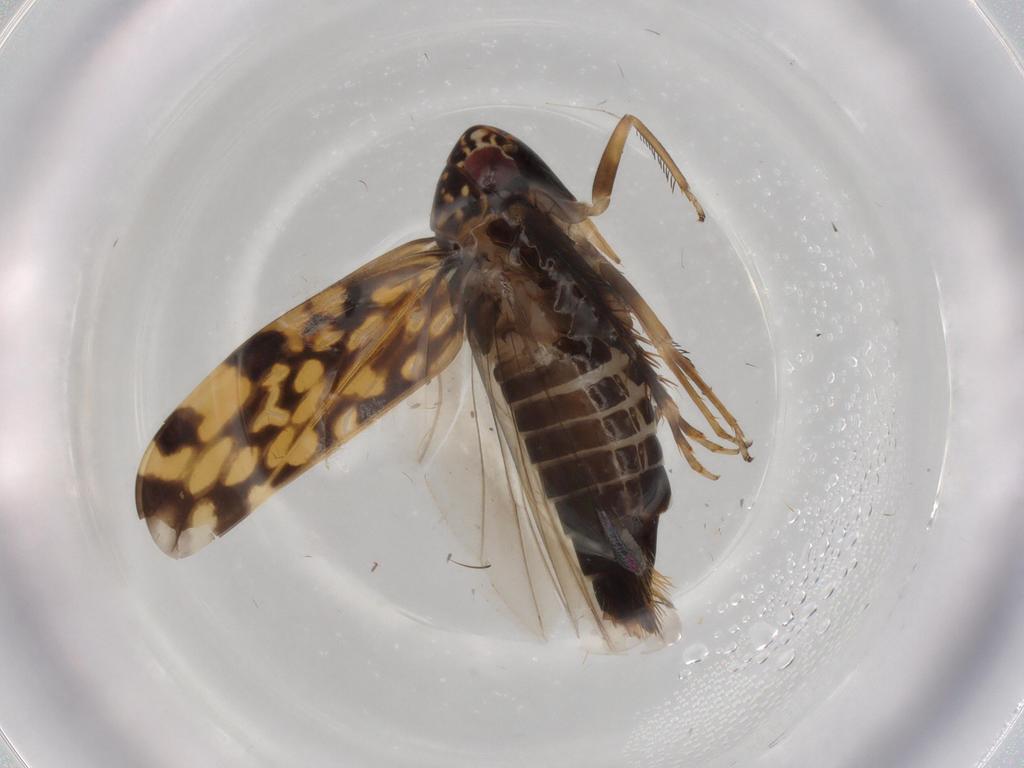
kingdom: Animalia
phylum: Arthropoda
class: Insecta
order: Hemiptera
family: Cicadellidae
